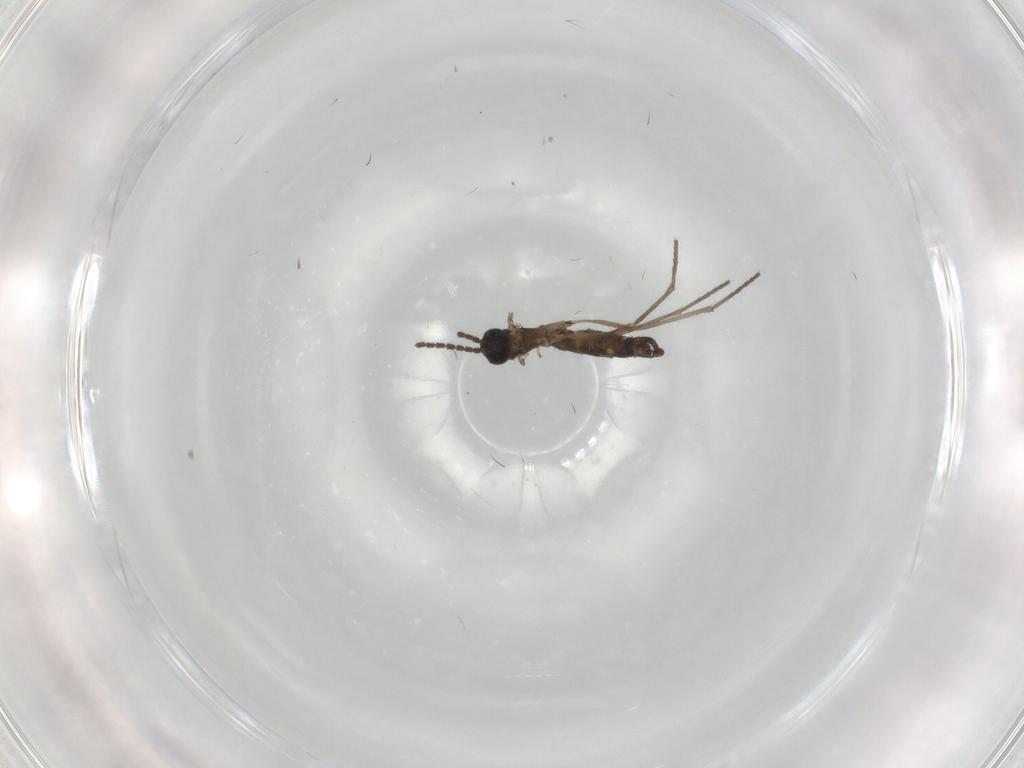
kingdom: Animalia
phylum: Arthropoda
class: Insecta
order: Diptera
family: Sciaridae
